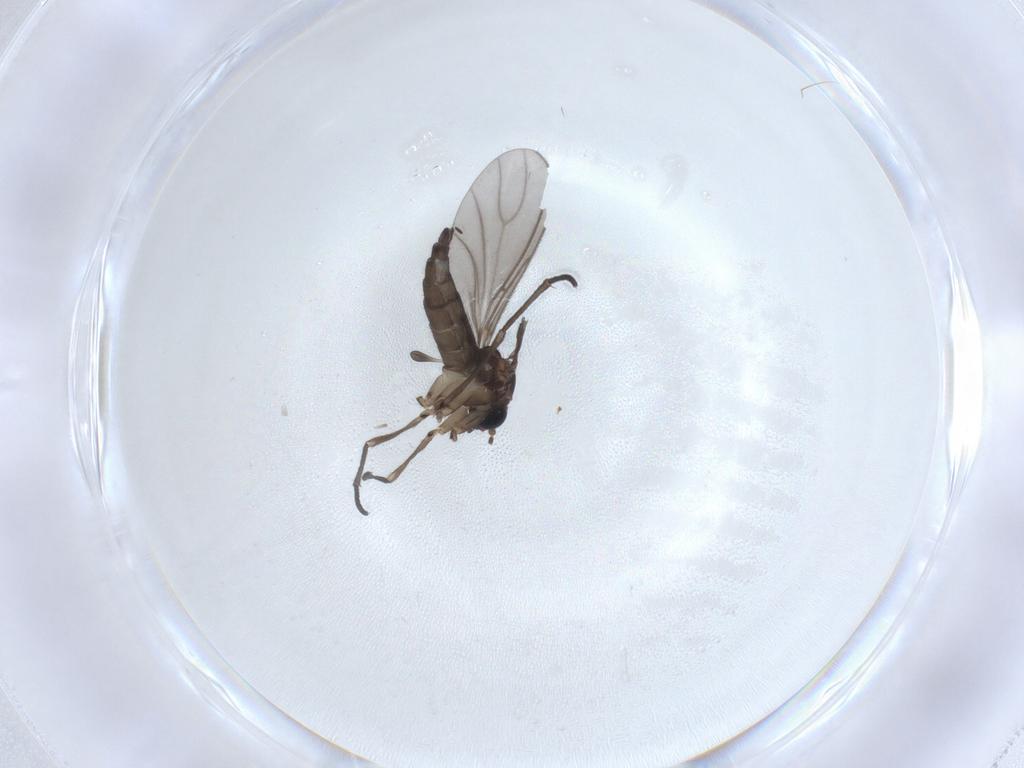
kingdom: Animalia
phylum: Arthropoda
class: Insecta
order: Diptera
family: Sciaridae
